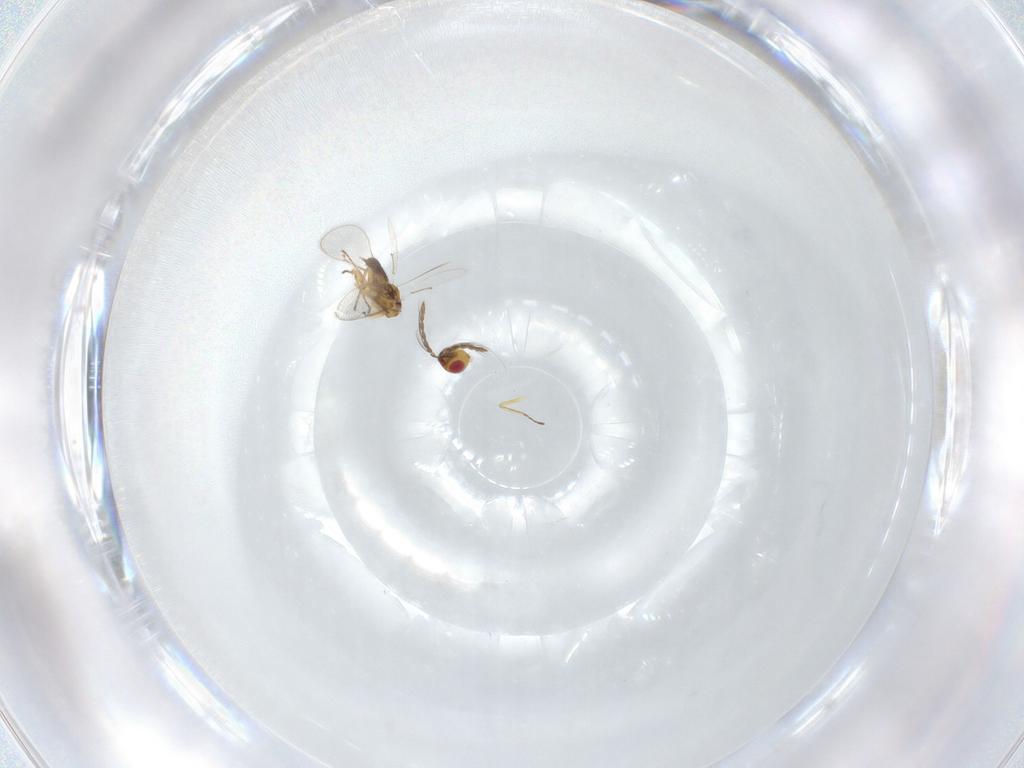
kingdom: Animalia
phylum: Arthropoda
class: Insecta
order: Hymenoptera
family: Eulophidae
